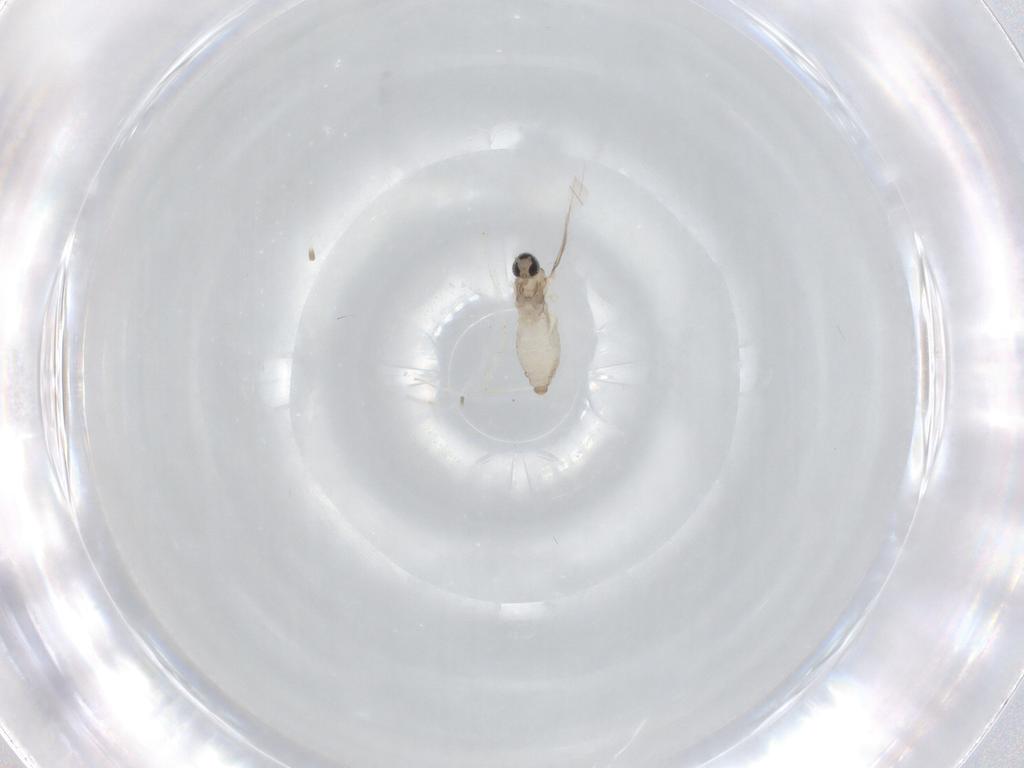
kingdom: Animalia
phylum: Arthropoda
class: Insecta
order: Diptera
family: Cecidomyiidae
